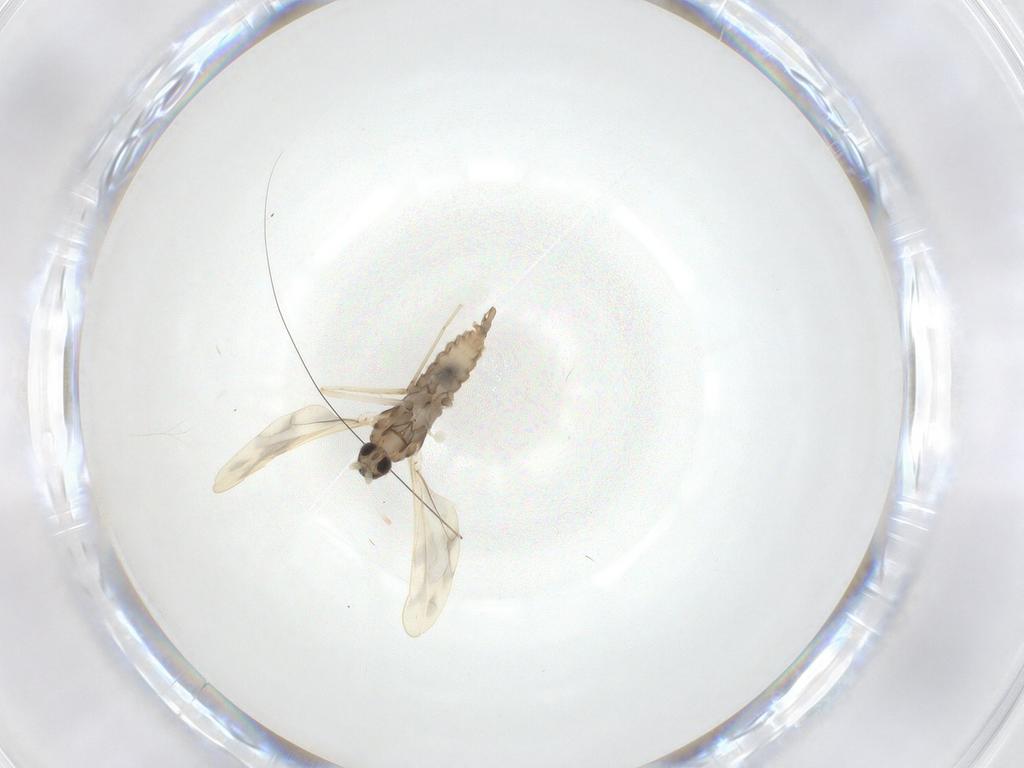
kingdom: Animalia
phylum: Arthropoda
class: Insecta
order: Diptera
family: Cecidomyiidae
